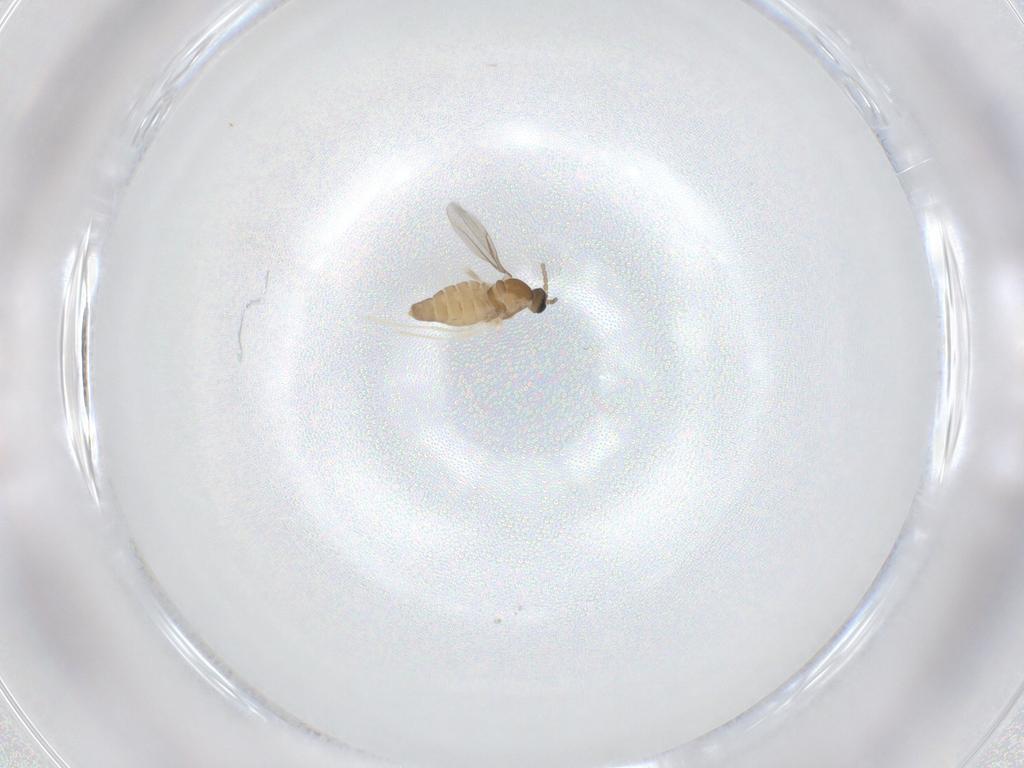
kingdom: Animalia
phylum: Arthropoda
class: Insecta
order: Diptera
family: Cecidomyiidae
